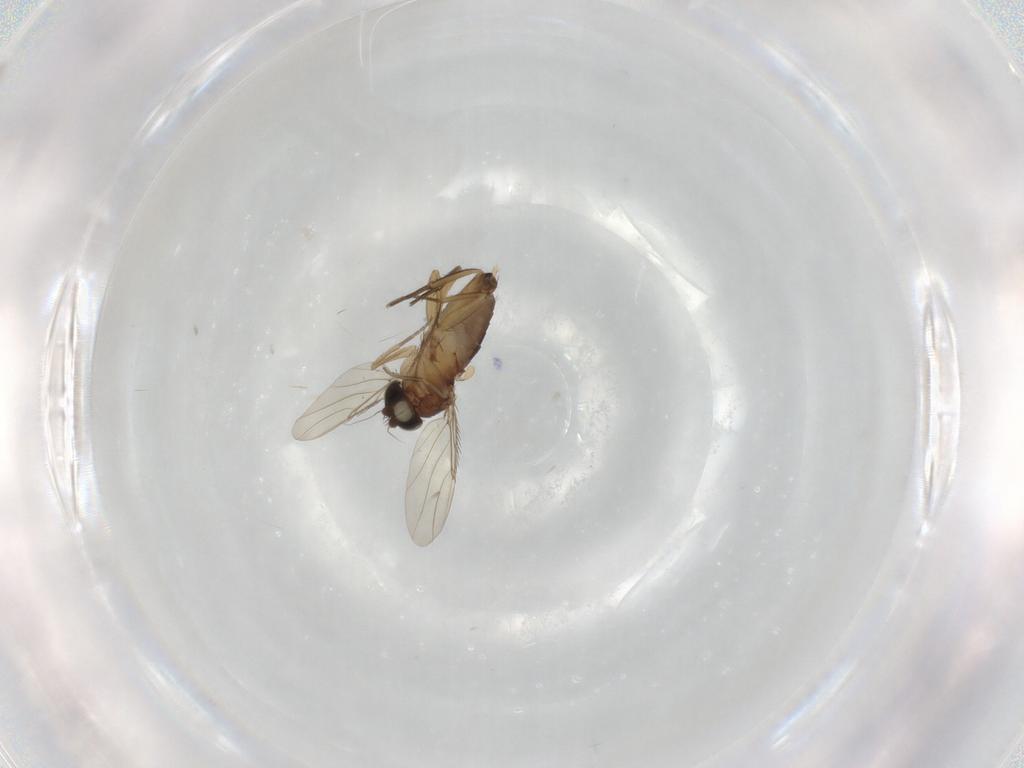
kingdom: Animalia
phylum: Arthropoda
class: Insecta
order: Diptera
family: Phoridae
